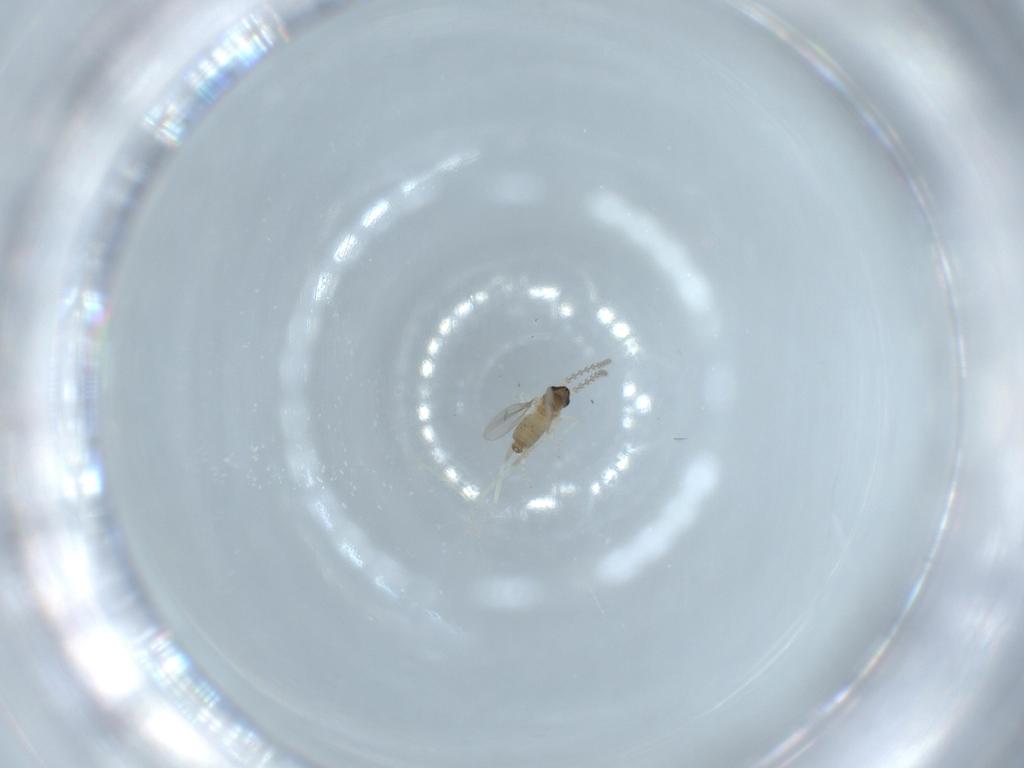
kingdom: Animalia
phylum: Arthropoda
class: Insecta
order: Diptera
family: Cecidomyiidae
